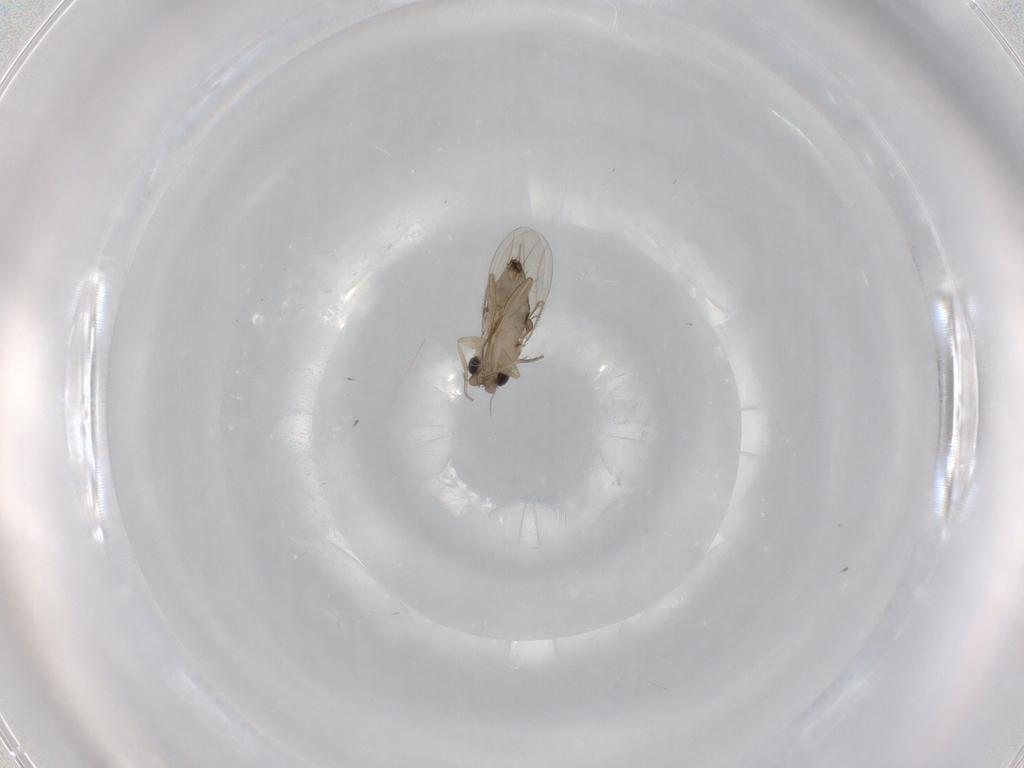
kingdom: Animalia
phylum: Arthropoda
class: Insecta
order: Diptera
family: Phoridae
